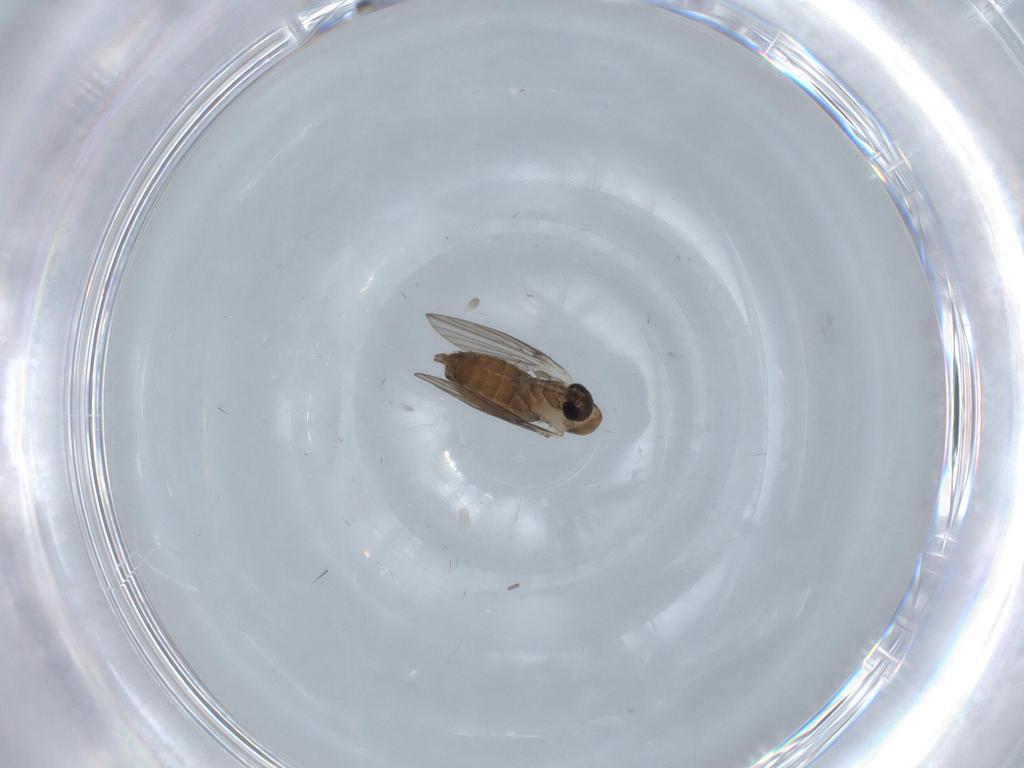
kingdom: Animalia
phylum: Arthropoda
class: Insecta
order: Diptera
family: Psychodidae
